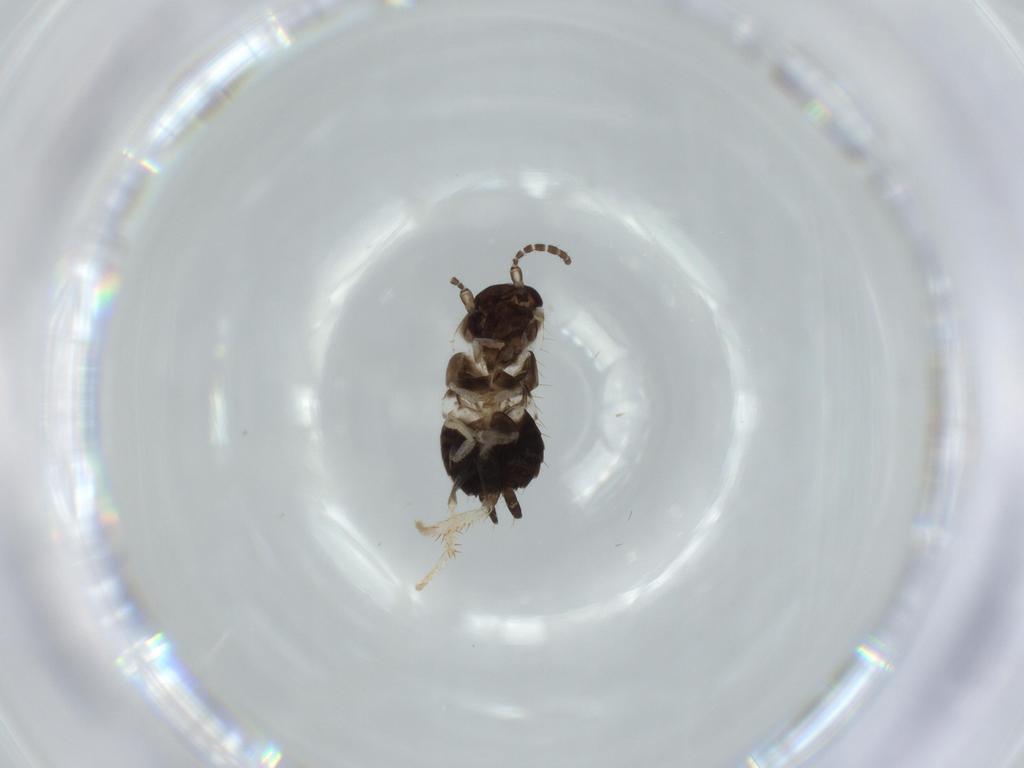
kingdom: Animalia
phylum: Arthropoda
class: Insecta
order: Blattodea
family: Ectobiidae
